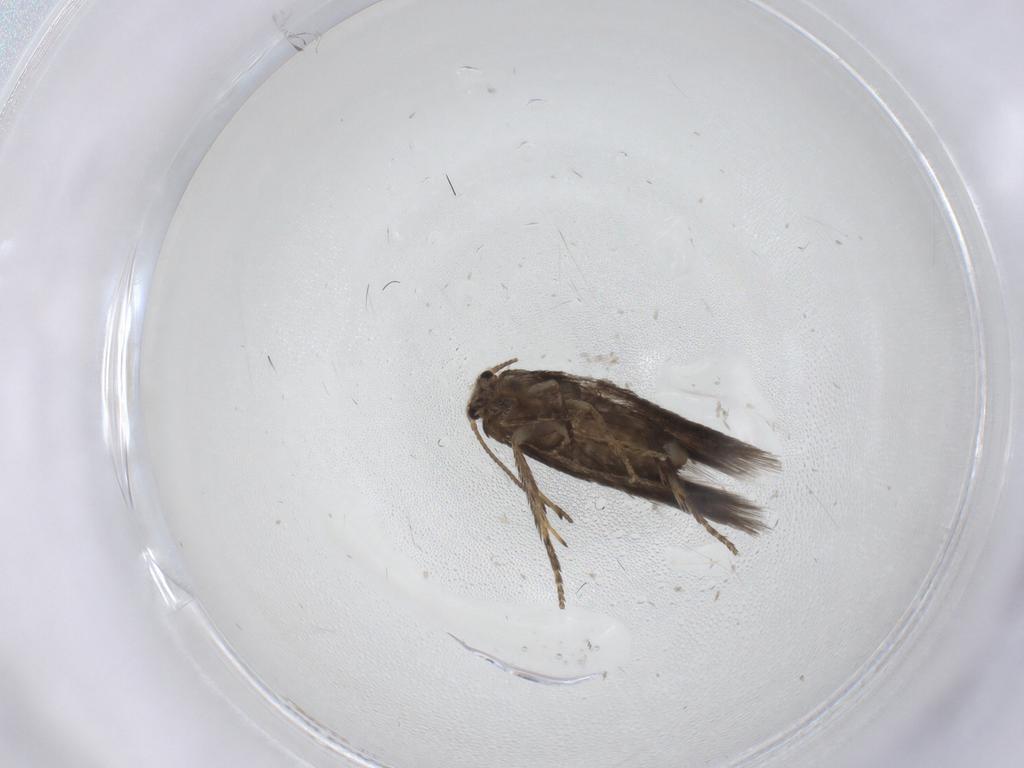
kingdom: Animalia
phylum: Arthropoda
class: Insecta
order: Lepidoptera
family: Nepticulidae
